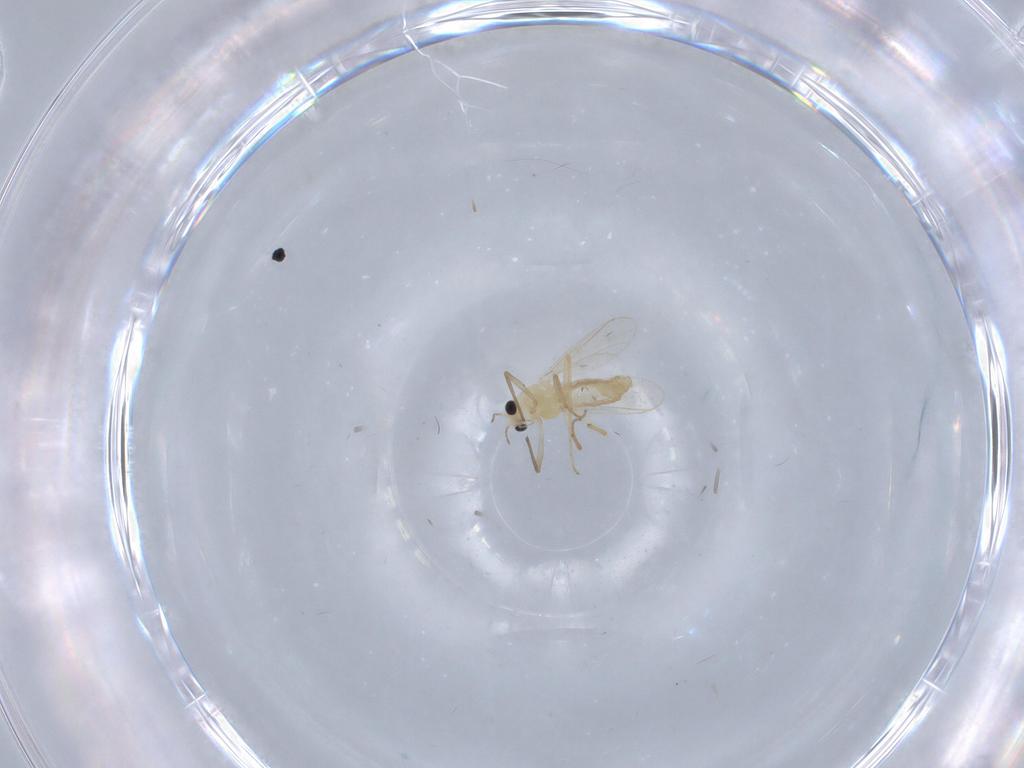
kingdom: Animalia
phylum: Arthropoda
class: Insecta
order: Diptera
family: Chironomidae
